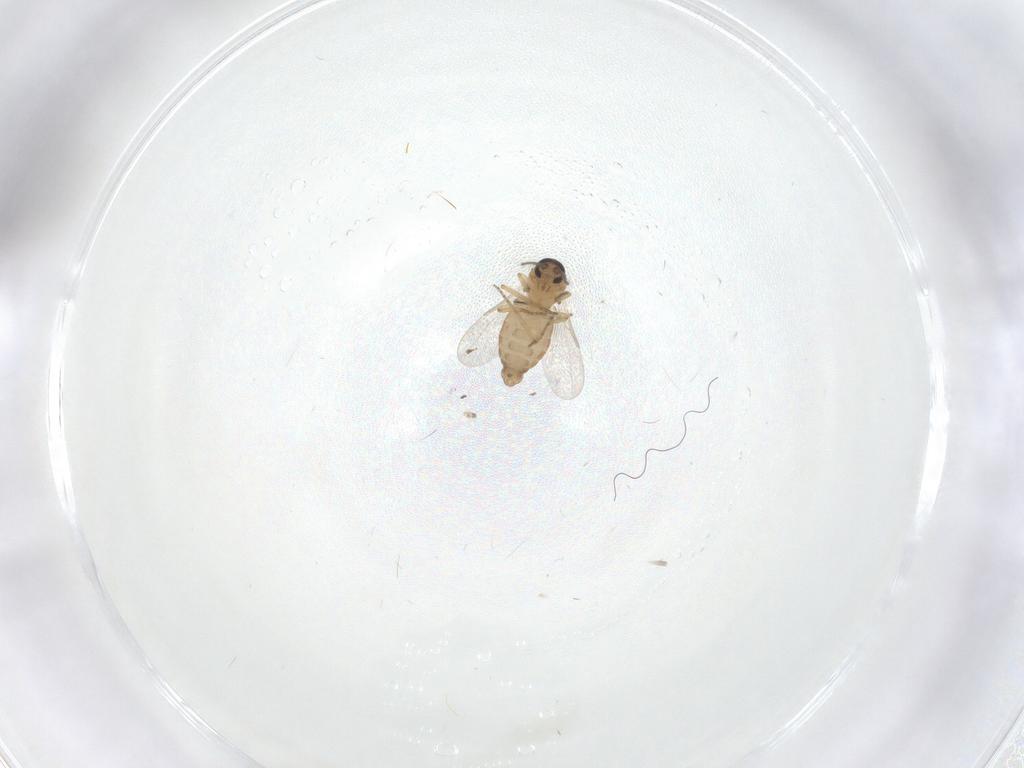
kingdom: Animalia
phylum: Arthropoda
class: Insecta
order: Diptera
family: Ceratopogonidae
